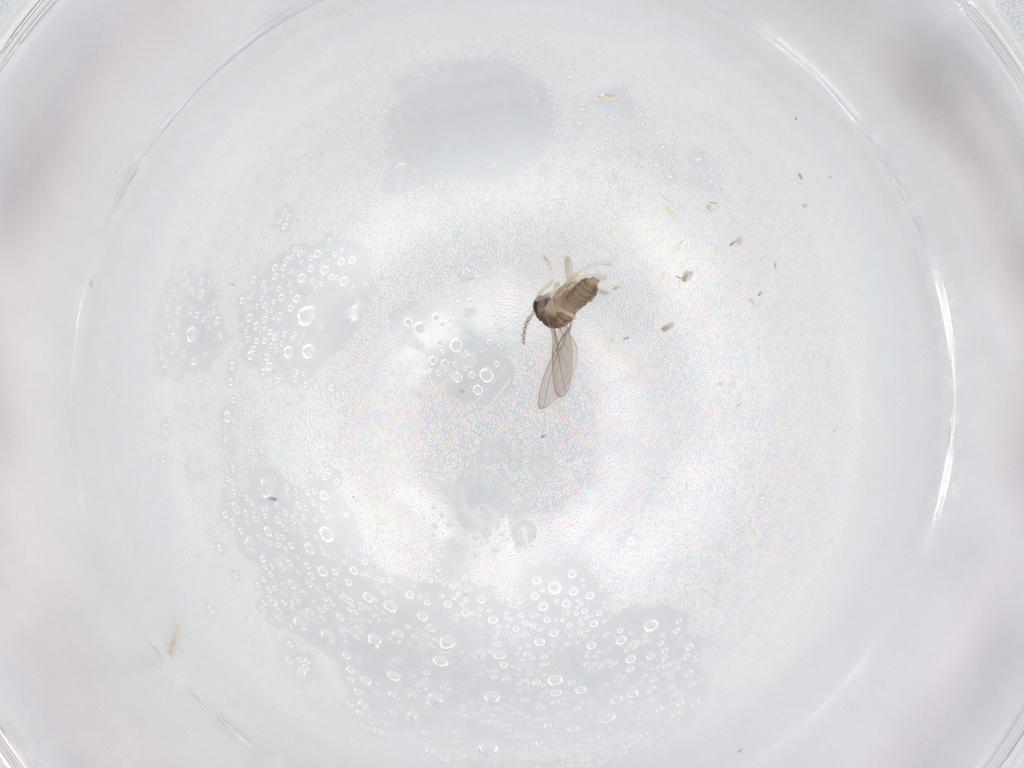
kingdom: Animalia
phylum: Arthropoda
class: Insecta
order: Diptera
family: Cecidomyiidae
